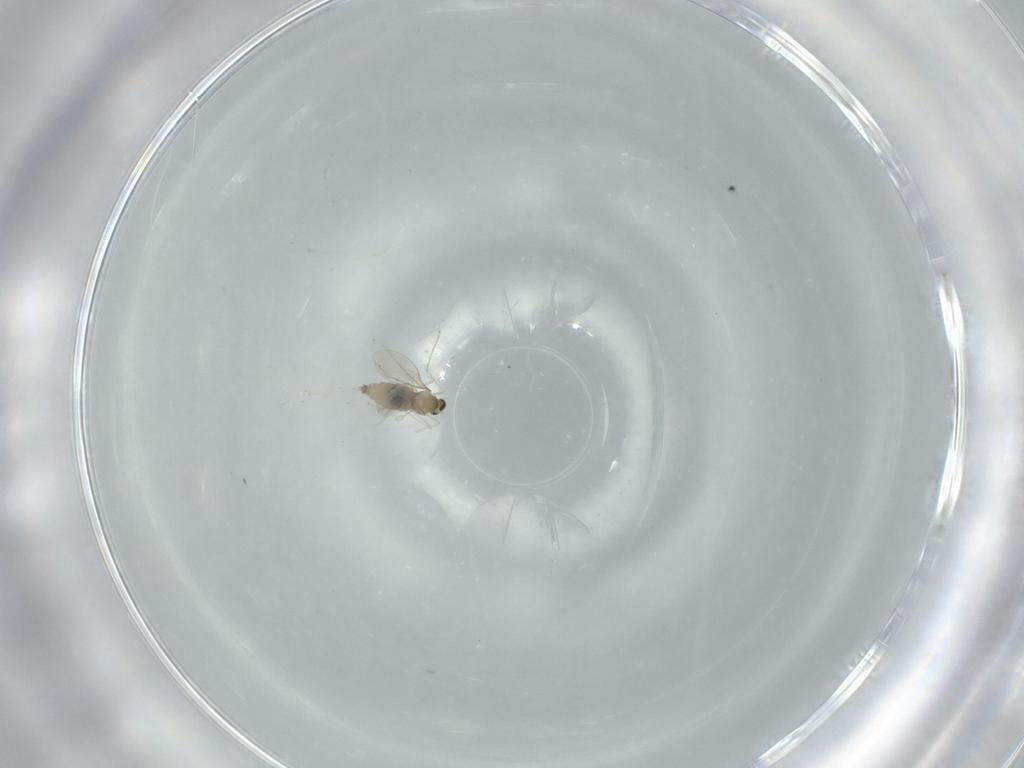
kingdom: Animalia
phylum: Arthropoda
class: Insecta
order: Diptera
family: Cecidomyiidae
